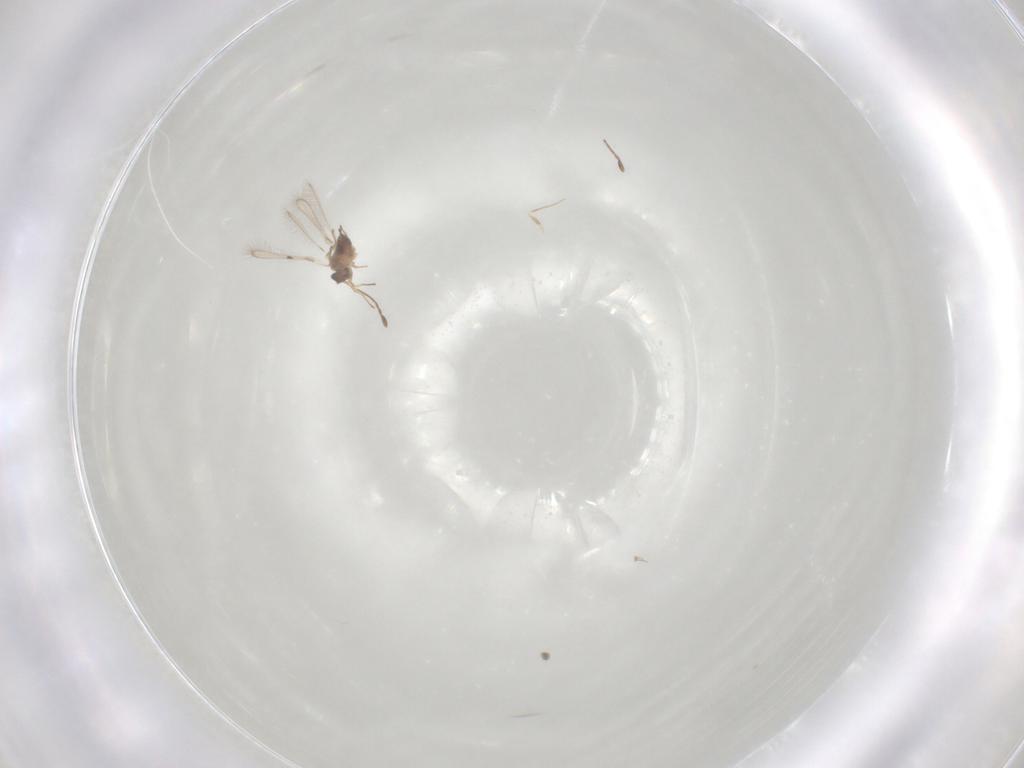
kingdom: Animalia
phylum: Arthropoda
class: Insecta
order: Hymenoptera
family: Mymaridae
